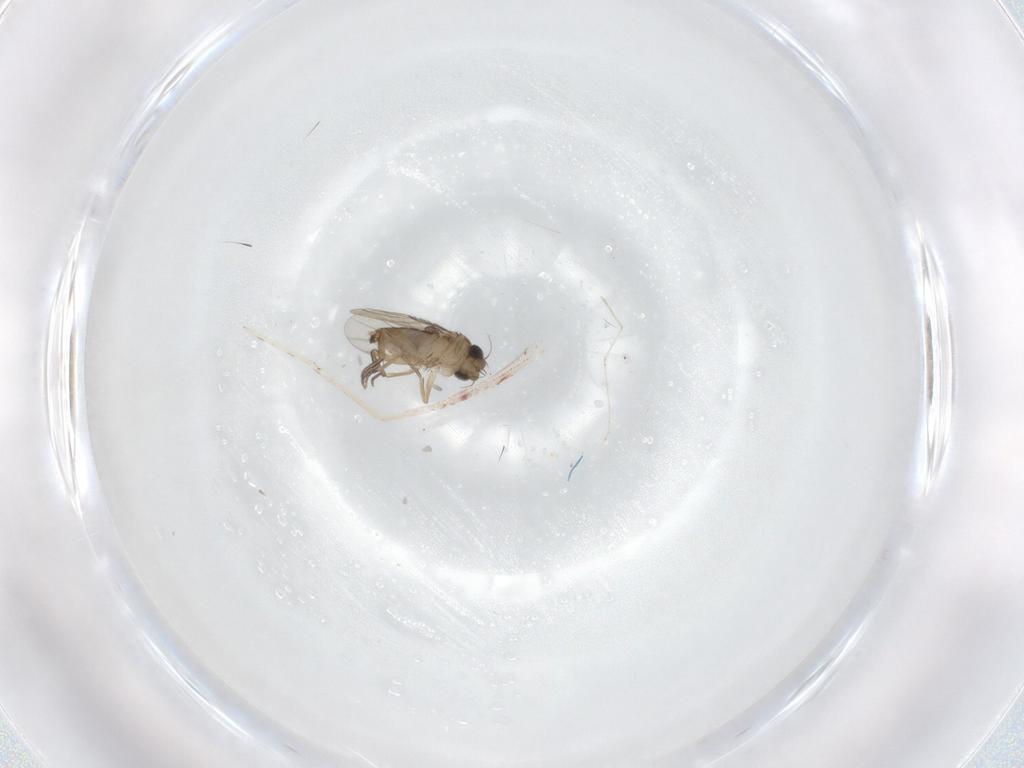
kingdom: Animalia
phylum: Arthropoda
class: Insecta
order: Diptera
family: Phoridae
